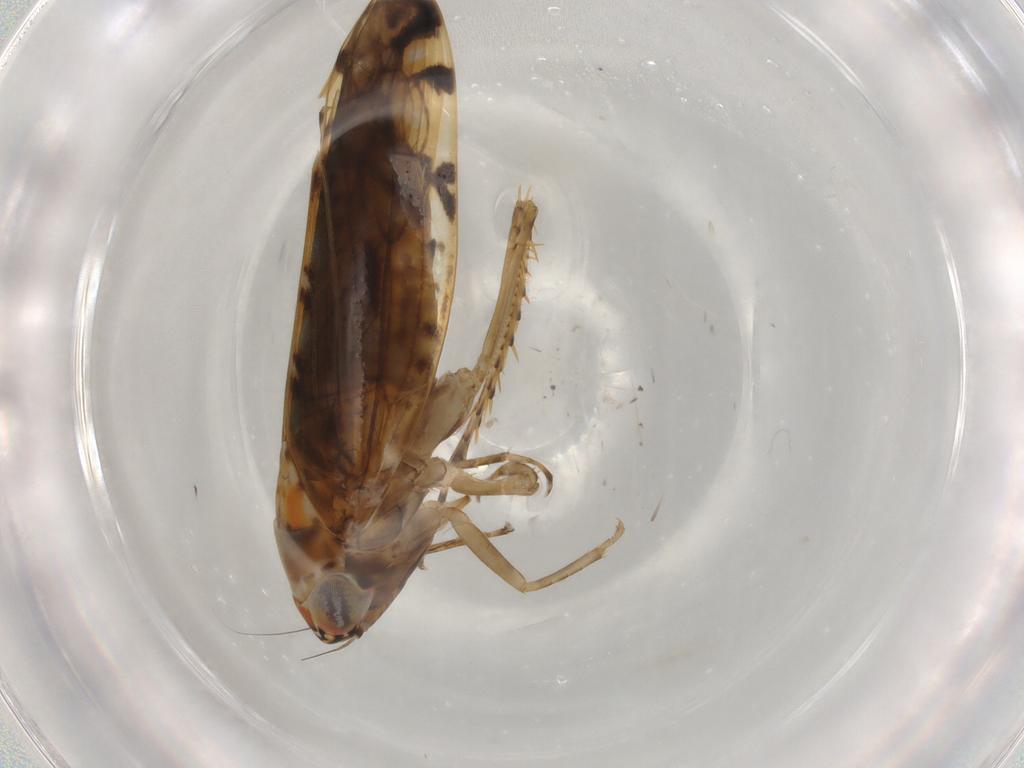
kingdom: Animalia
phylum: Arthropoda
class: Insecta
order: Hemiptera
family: Cicadellidae
